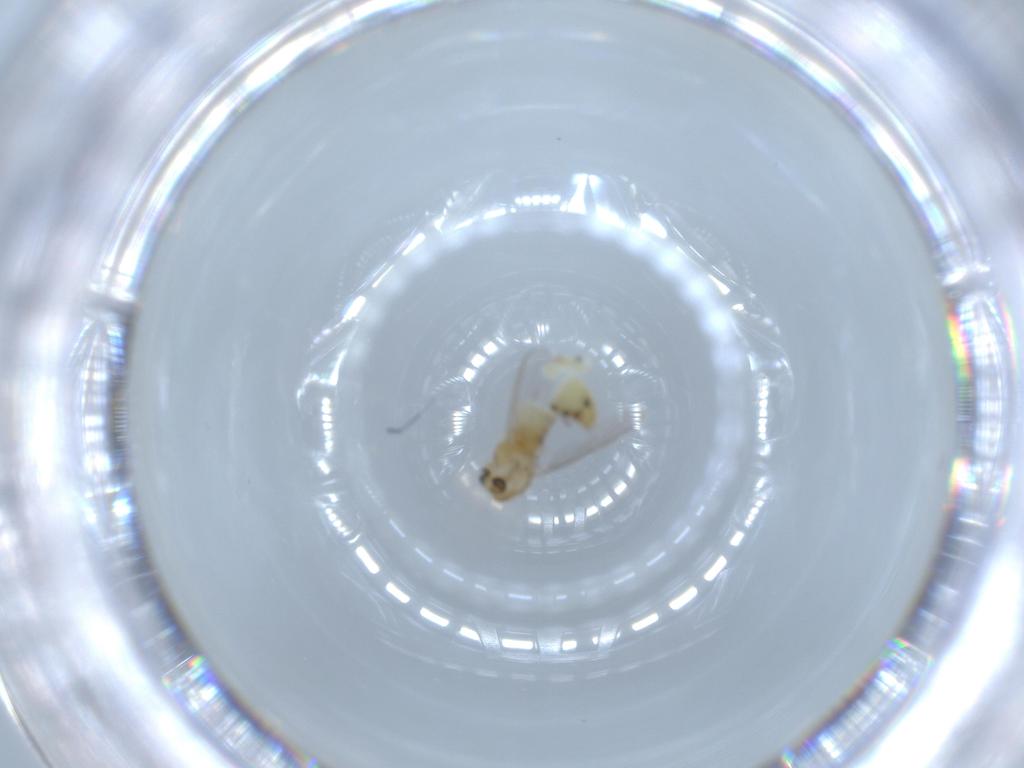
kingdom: Animalia
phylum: Arthropoda
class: Insecta
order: Diptera
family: Chironomidae
